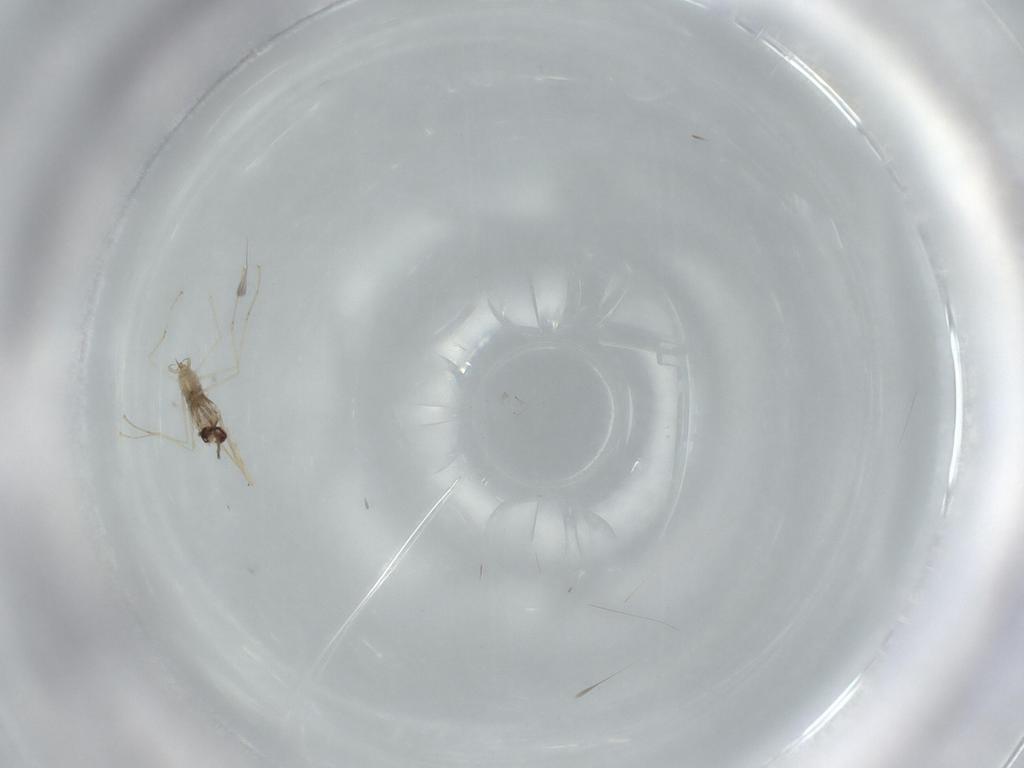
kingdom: Animalia
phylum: Arthropoda
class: Insecta
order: Diptera
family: Cecidomyiidae
